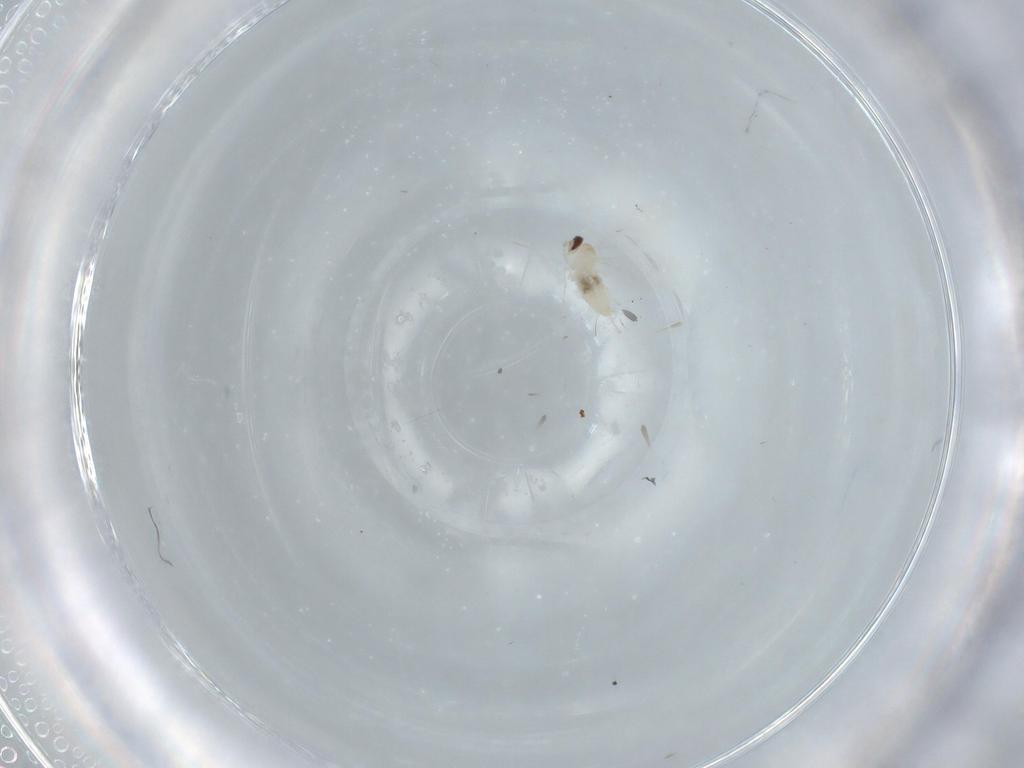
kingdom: Animalia
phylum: Arthropoda
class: Insecta
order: Diptera
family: Cecidomyiidae
